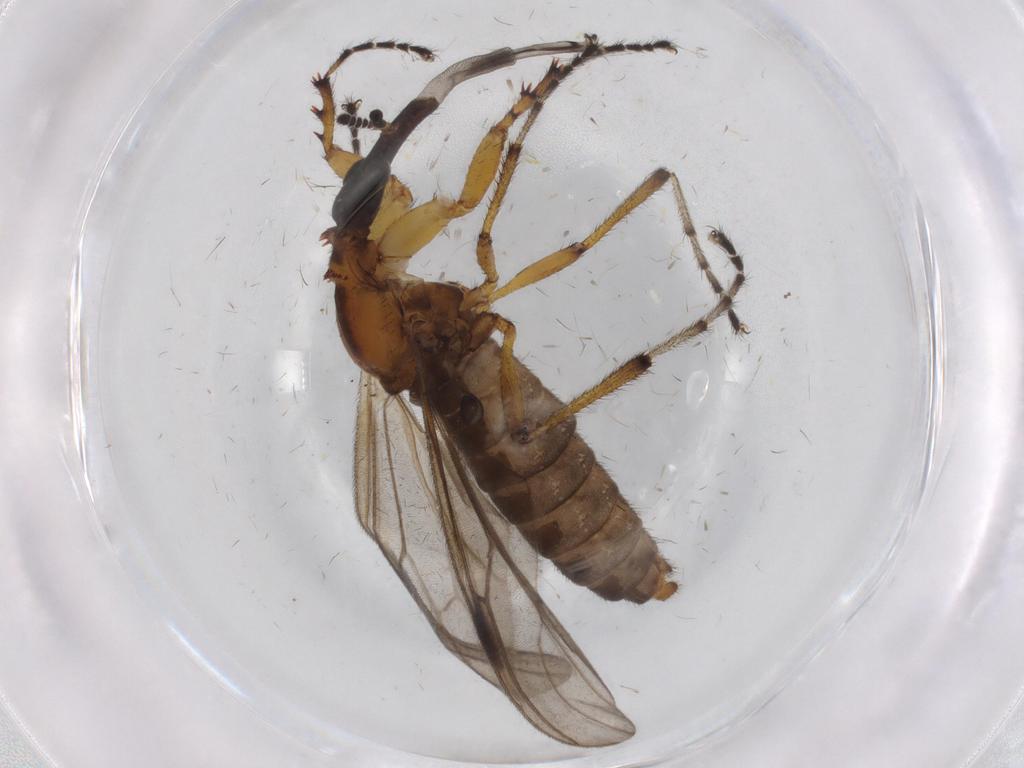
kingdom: Animalia
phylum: Arthropoda
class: Insecta
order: Diptera
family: Bibionidae
